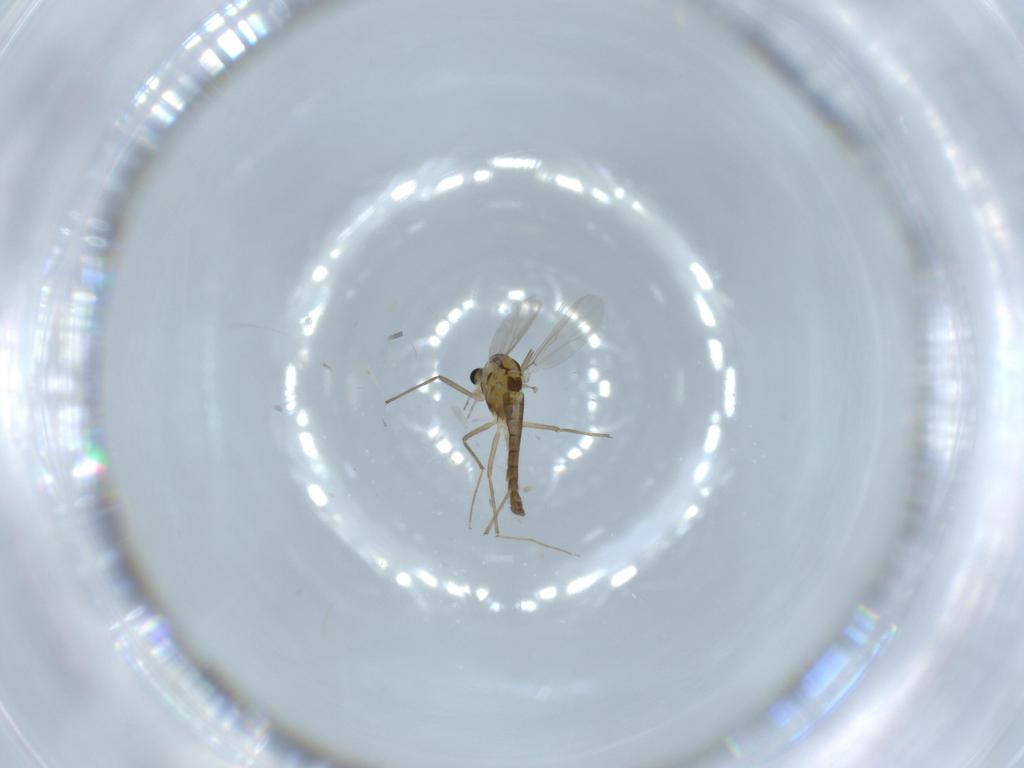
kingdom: Animalia
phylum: Arthropoda
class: Insecta
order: Diptera
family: Chironomidae
